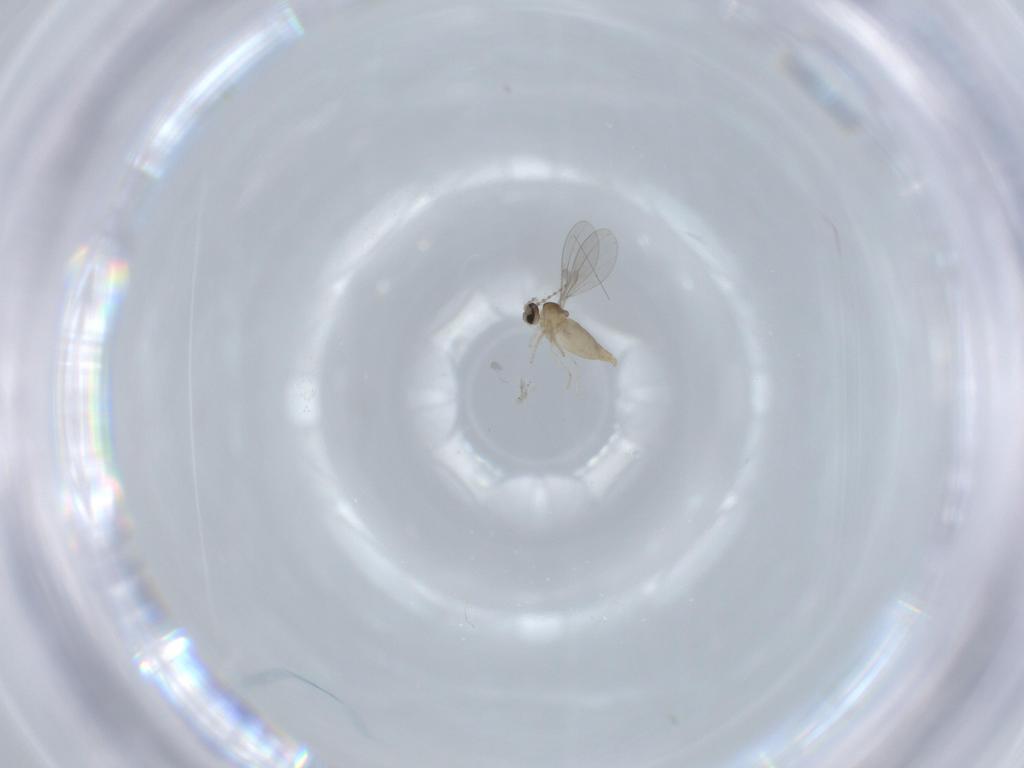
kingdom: Animalia
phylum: Arthropoda
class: Insecta
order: Diptera
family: Cecidomyiidae
